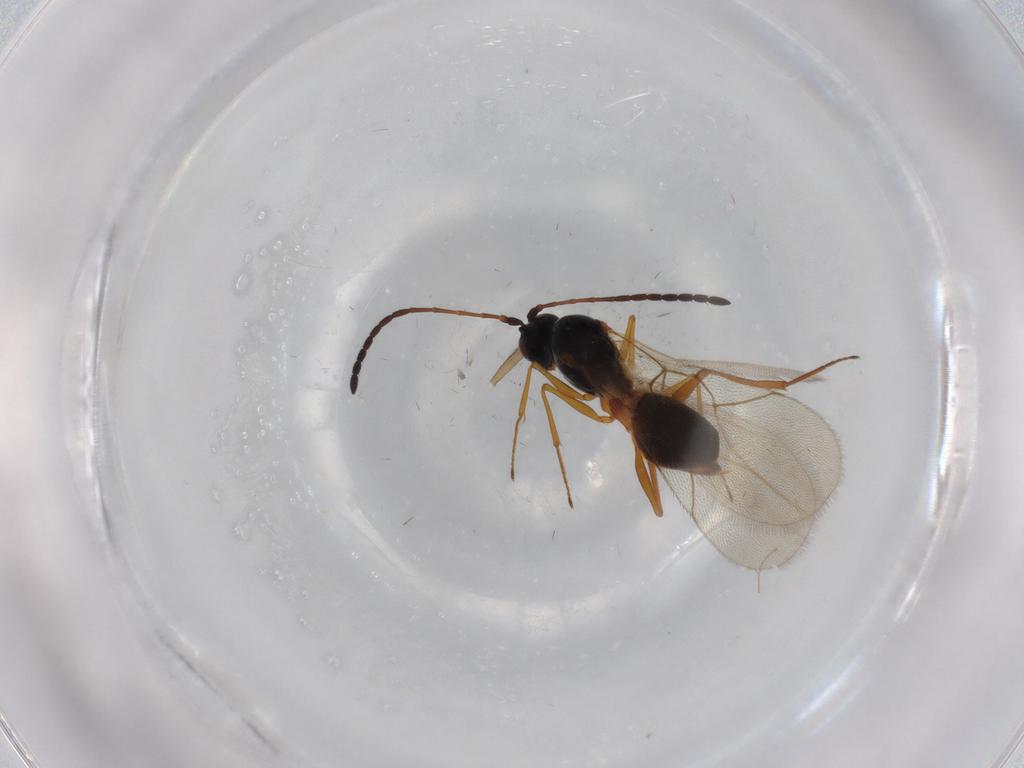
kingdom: Animalia
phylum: Arthropoda
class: Insecta
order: Hymenoptera
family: Figitidae
